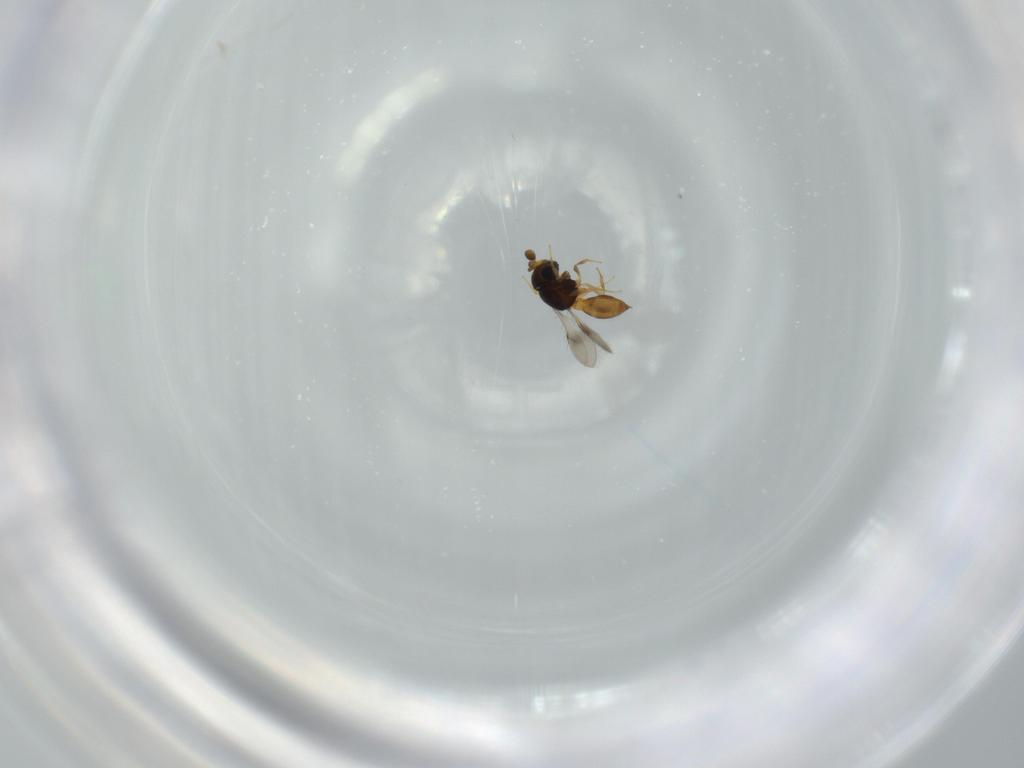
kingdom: Animalia
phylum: Arthropoda
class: Insecta
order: Hymenoptera
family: Scelionidae
